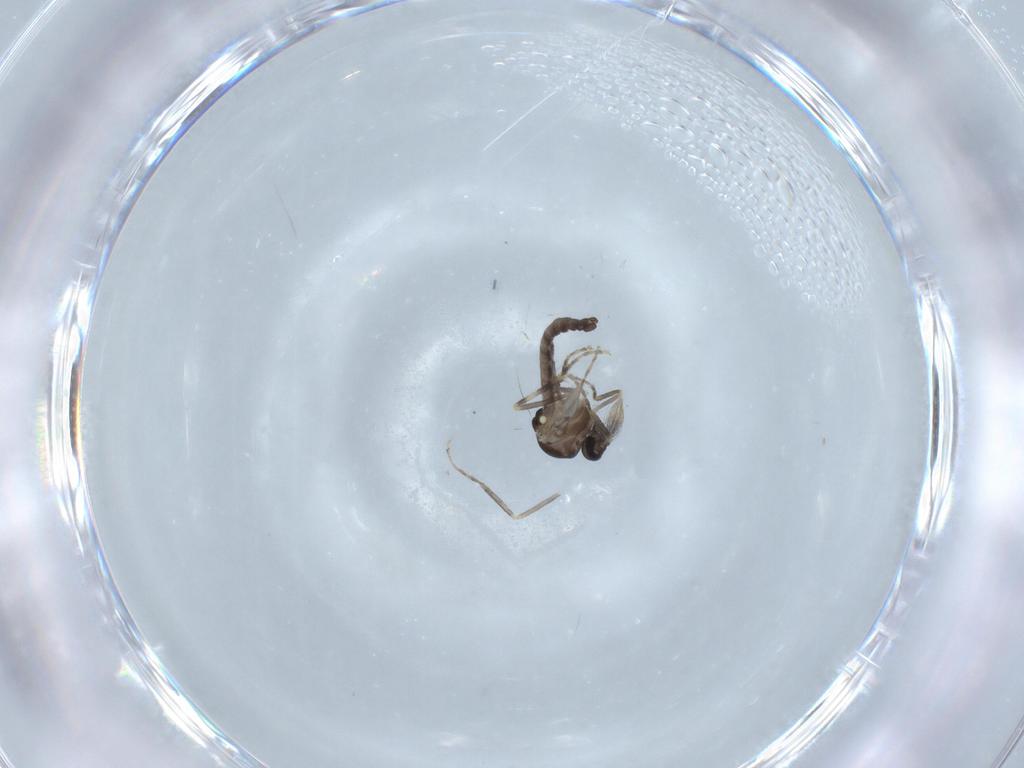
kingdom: Animalia
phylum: Arthropoda
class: Insecta
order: Diptera
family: Ceratopogonidae
